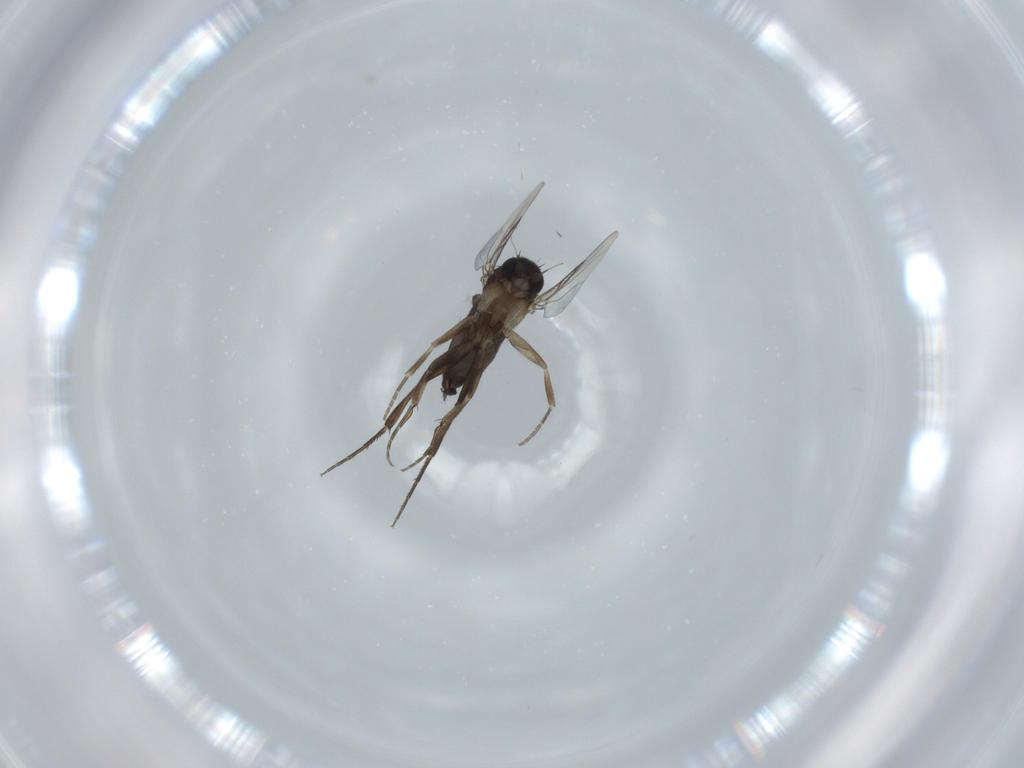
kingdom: Animalia
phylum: Arthropoda
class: Insecta
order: Diptera
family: Phoridae
